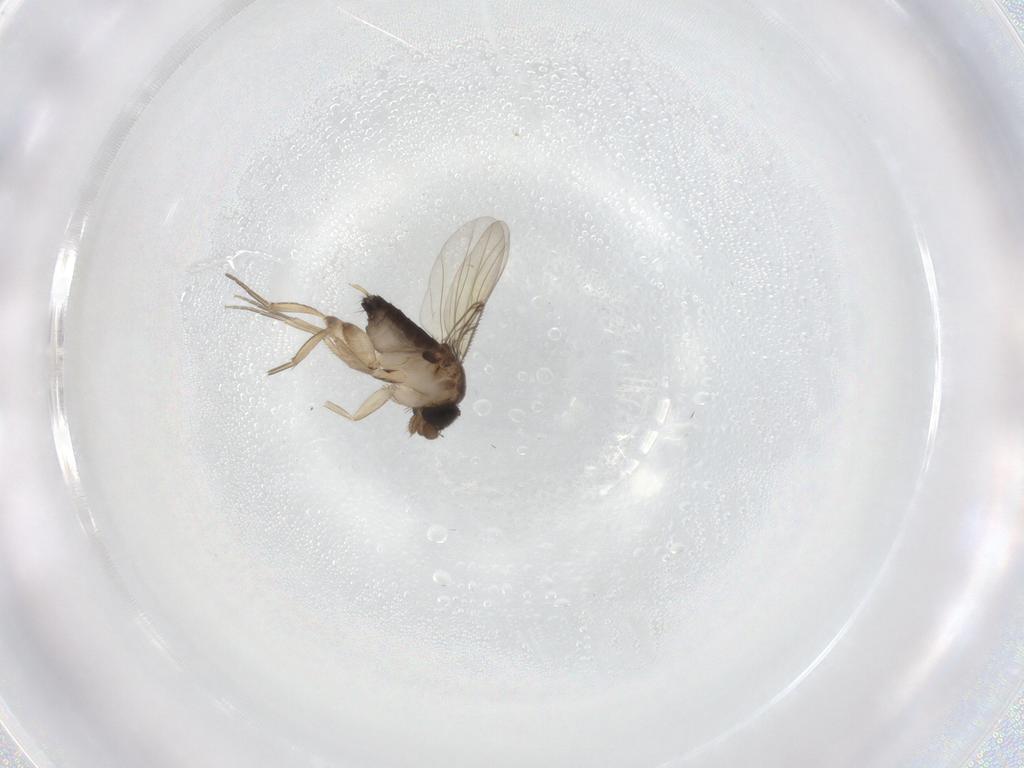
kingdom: Animalia
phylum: Arthropoda
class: Insecta
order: Diptera
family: Phoridae
